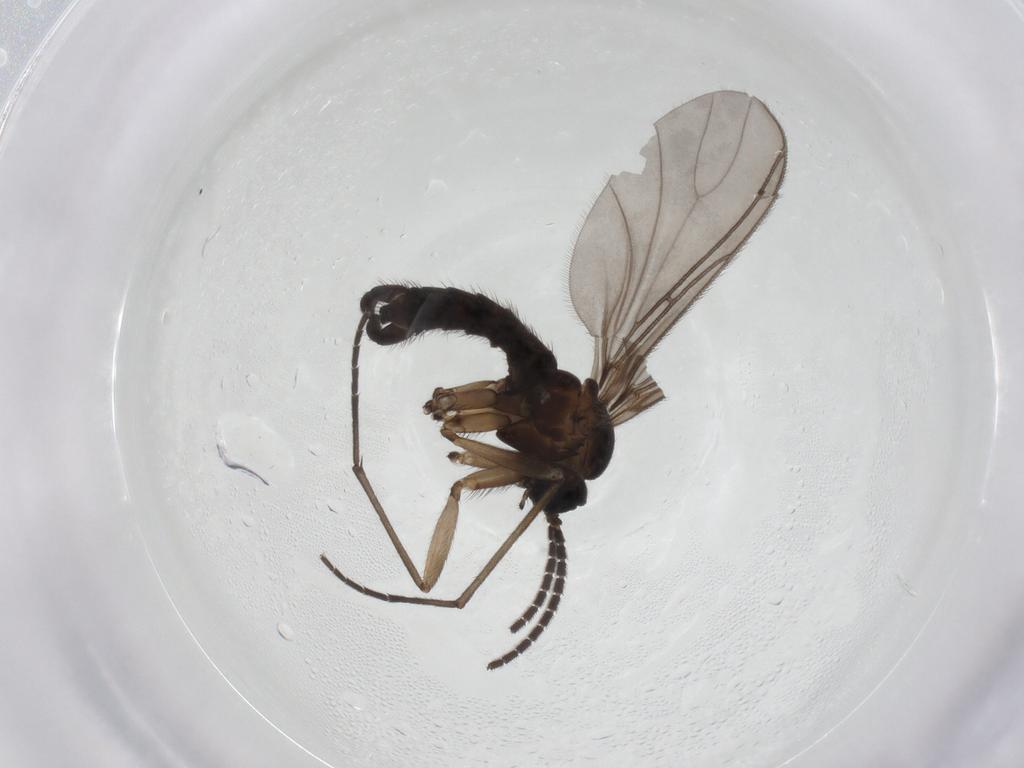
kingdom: Animalia
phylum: Arthropoda
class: Insecta
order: Diptera
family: Sciaridae
